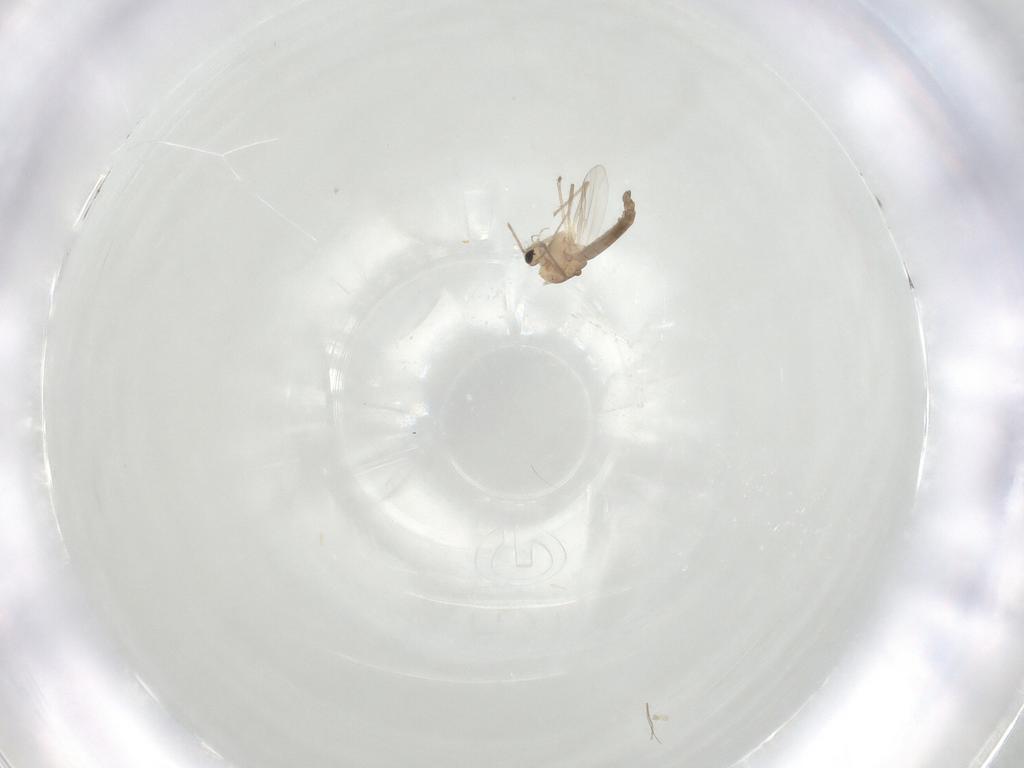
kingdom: Animalia
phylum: Arthropoda
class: Insecta
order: Diptera
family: Chironomidae
